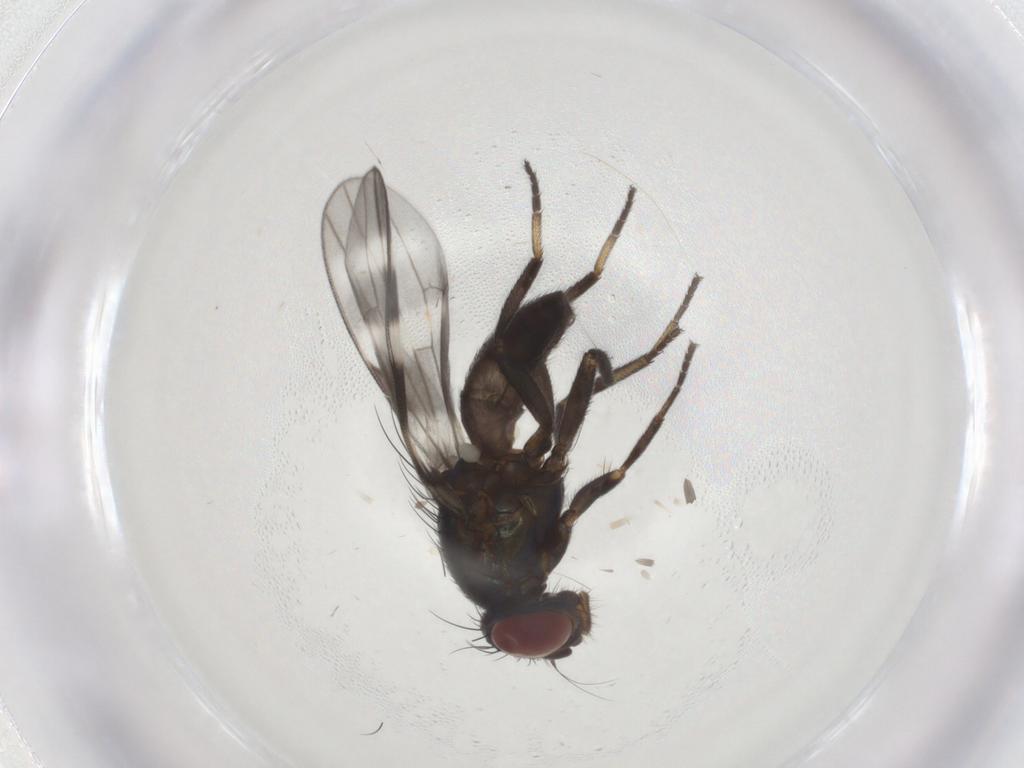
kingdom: Animalia
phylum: Arthropoda
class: Insecta
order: Diptera
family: Ulidiidae
